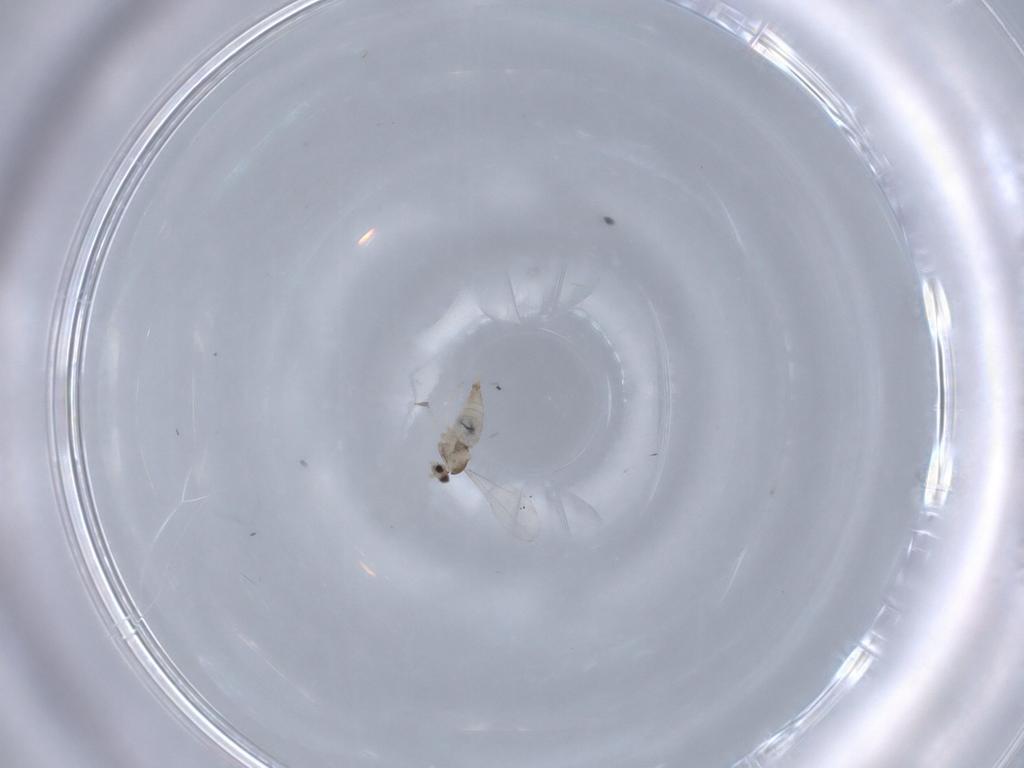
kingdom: Animalia
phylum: Arthropoda
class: Insecta
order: Diptera
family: Cecidomyiidae
